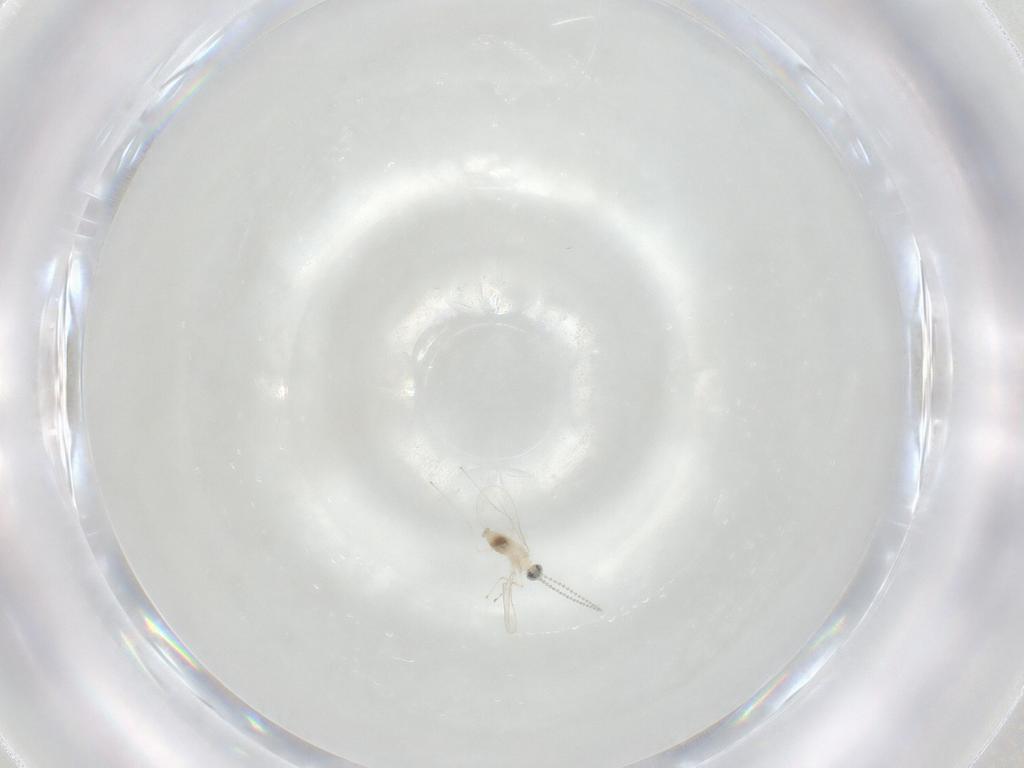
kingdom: Animalia
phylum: Arthropoda
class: Insecta
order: Diptera
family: Cecidomyiidae
